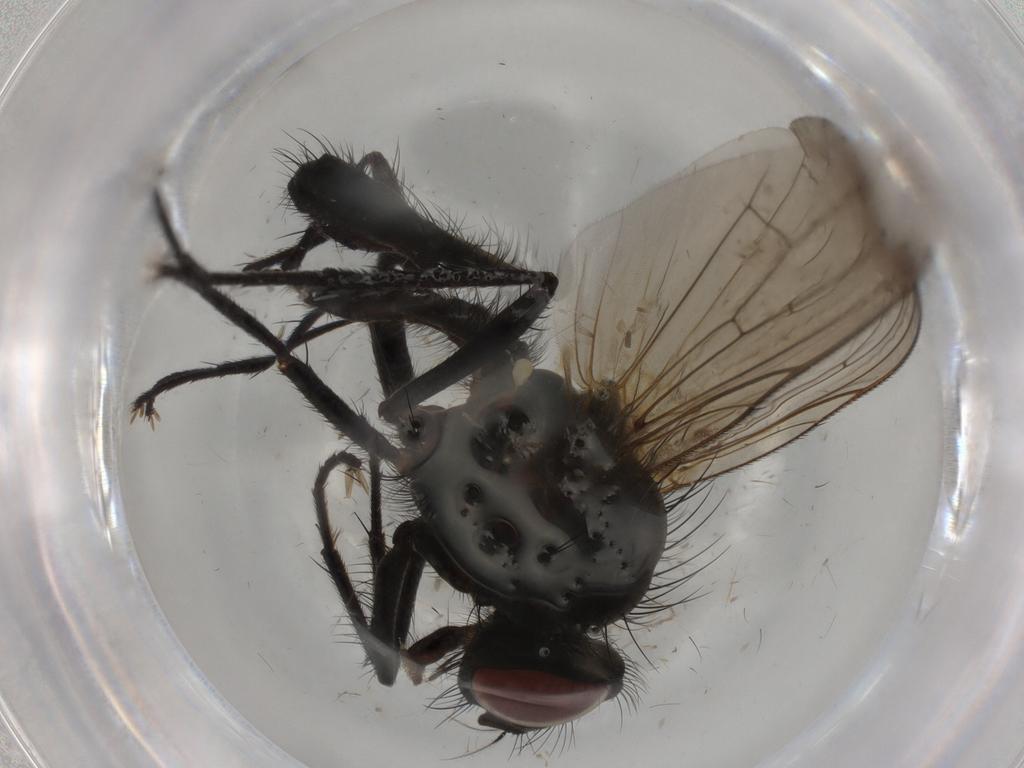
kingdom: Animalia
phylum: Arthropoda
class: Insecta
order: Diptera
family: Anthomyiidae
